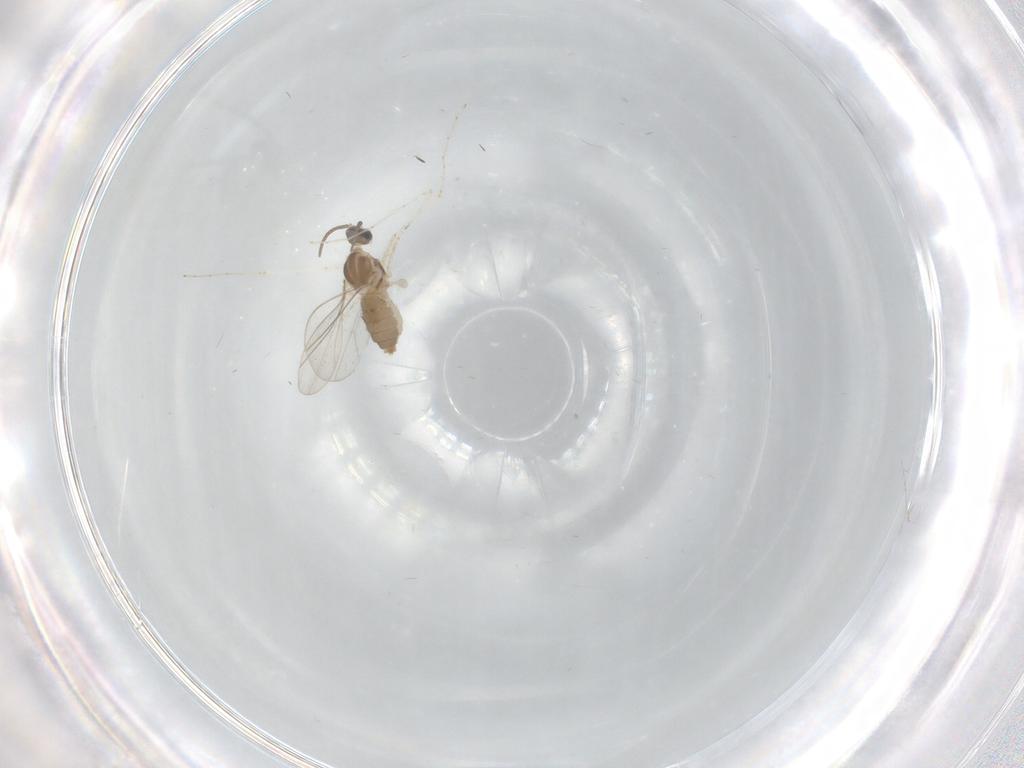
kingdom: Animalia
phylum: Arthropoda
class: Insecta
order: Diptera
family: Cecidomyiidae
